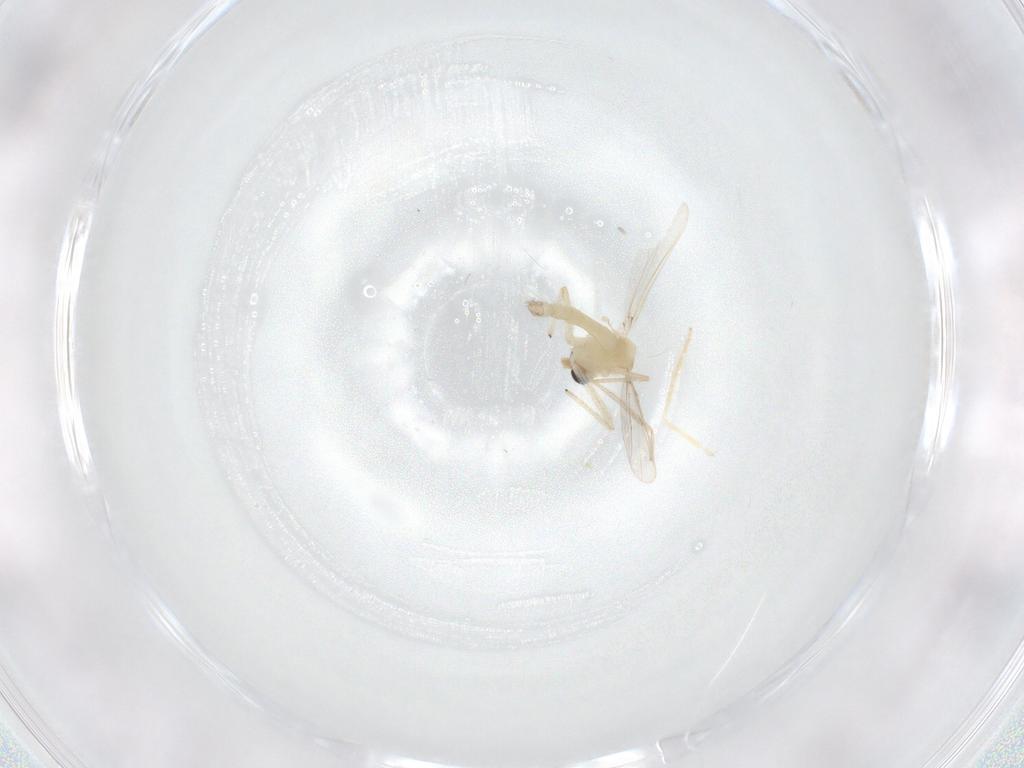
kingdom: Animalia
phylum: Arthropoda
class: Insecta
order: Diptera
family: Chironomidae
